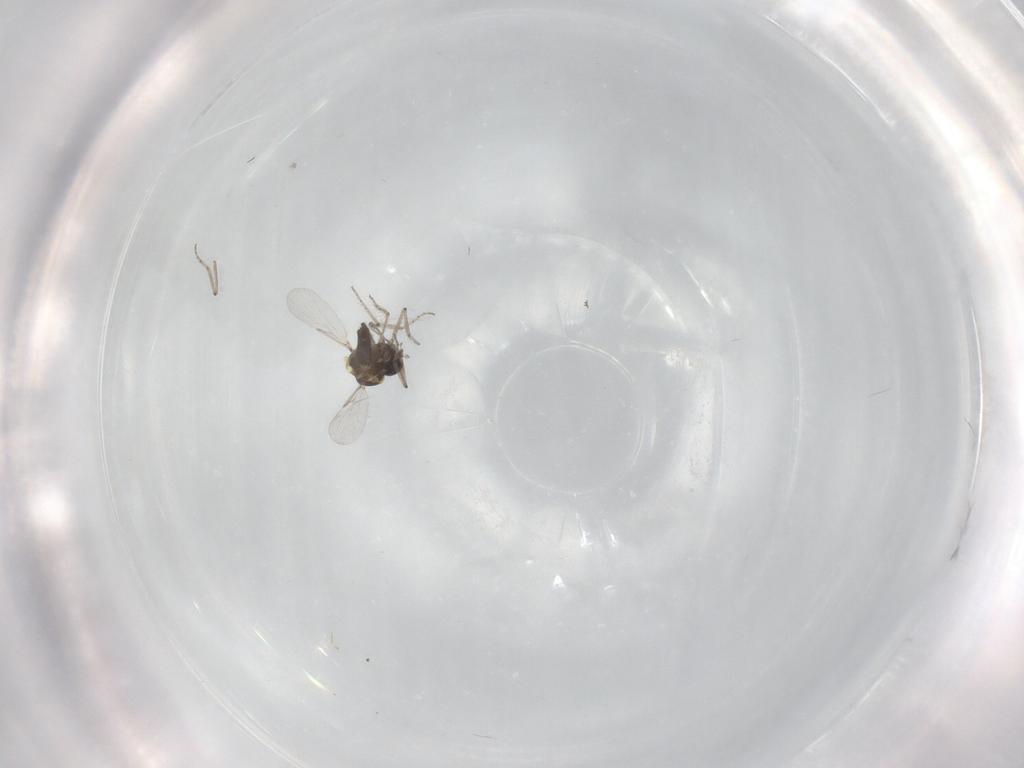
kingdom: Animalia
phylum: Arthropoda
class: Insecta
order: Diptera
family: Ceratopogonidae
